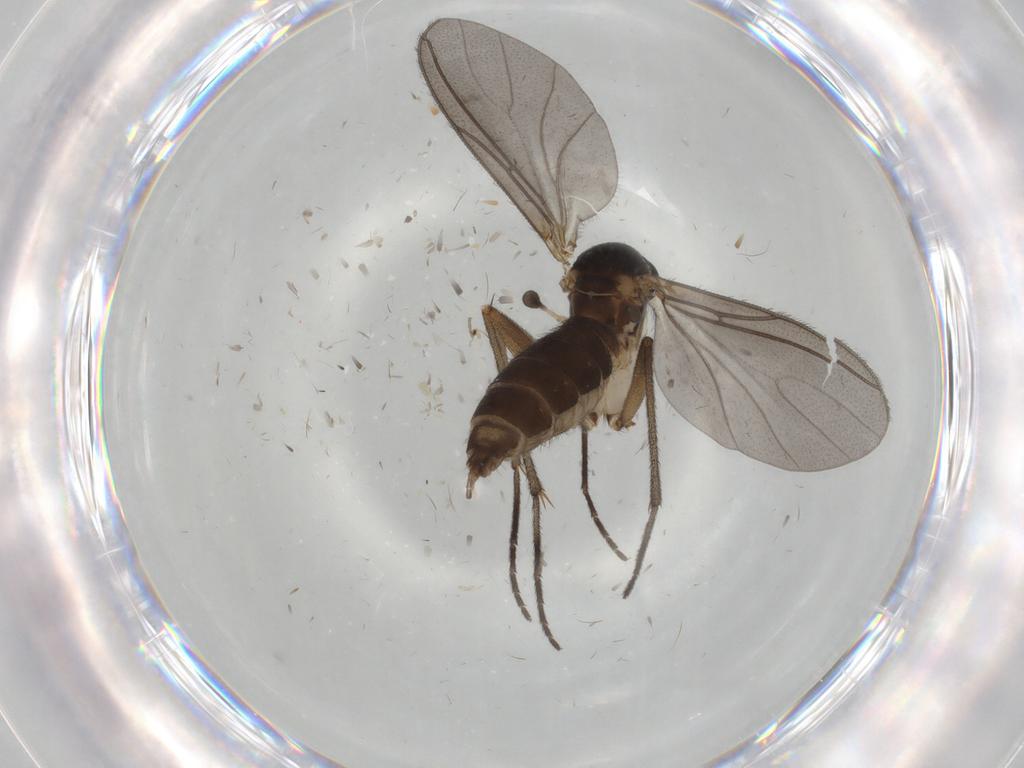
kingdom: Animalia
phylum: Arthropoda
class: Insecta
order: Diptera
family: Sciaridae
